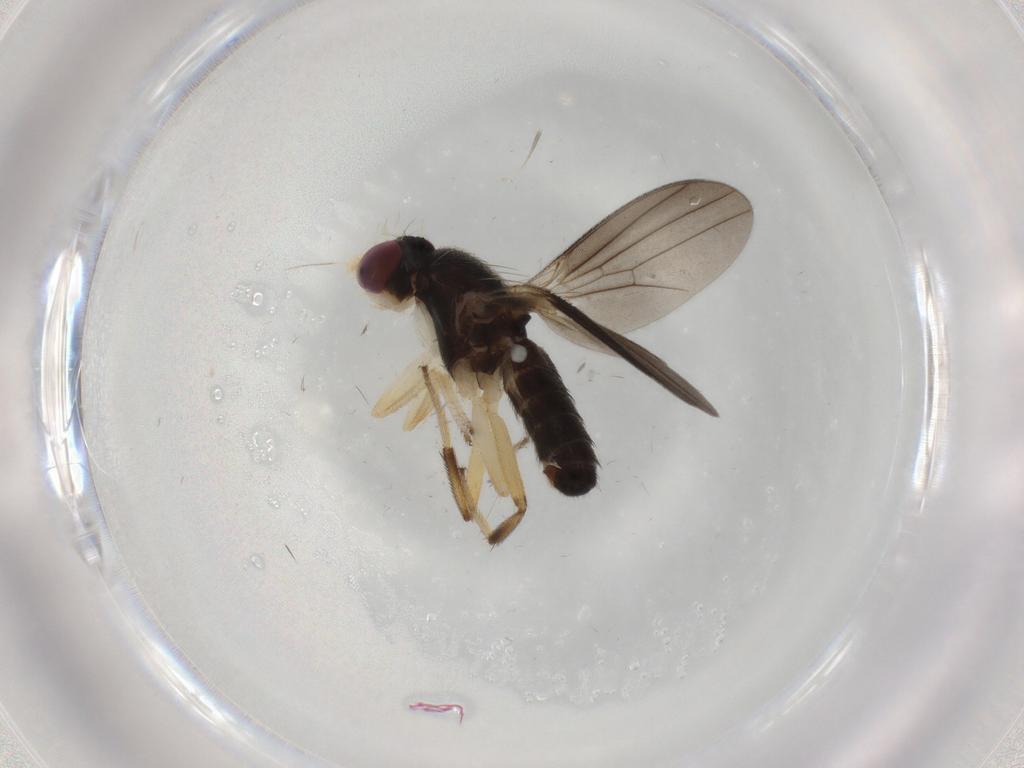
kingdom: Animalia
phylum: Arthropoda
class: Insecta
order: Diptera
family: Clusiidae
